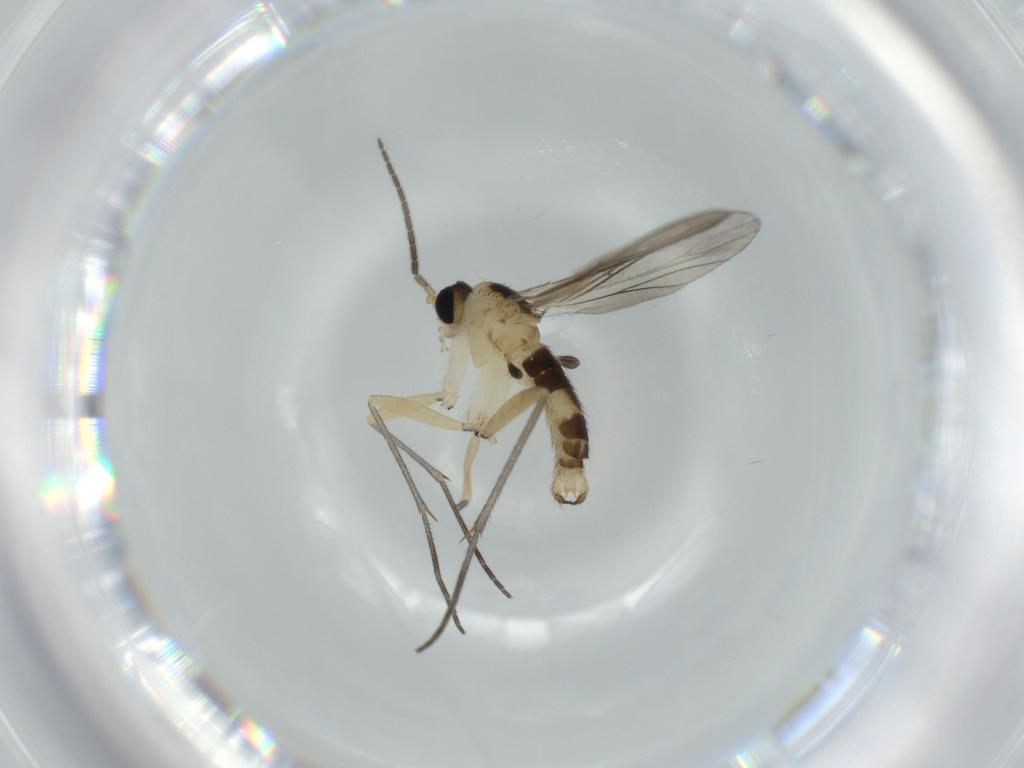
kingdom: Animalia
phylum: Arthropoda
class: Insecta
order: Diptera
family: Sciaridae
